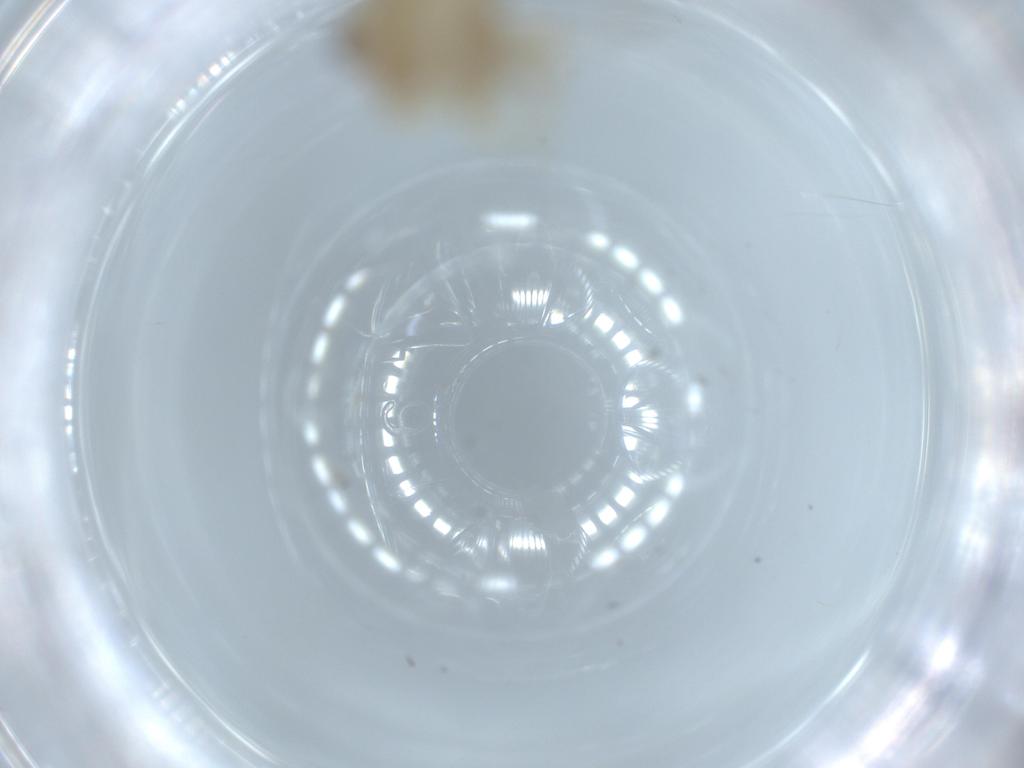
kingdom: Animalia
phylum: Arthropoda
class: Insecta
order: Hemiptera
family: Nogodinidae
